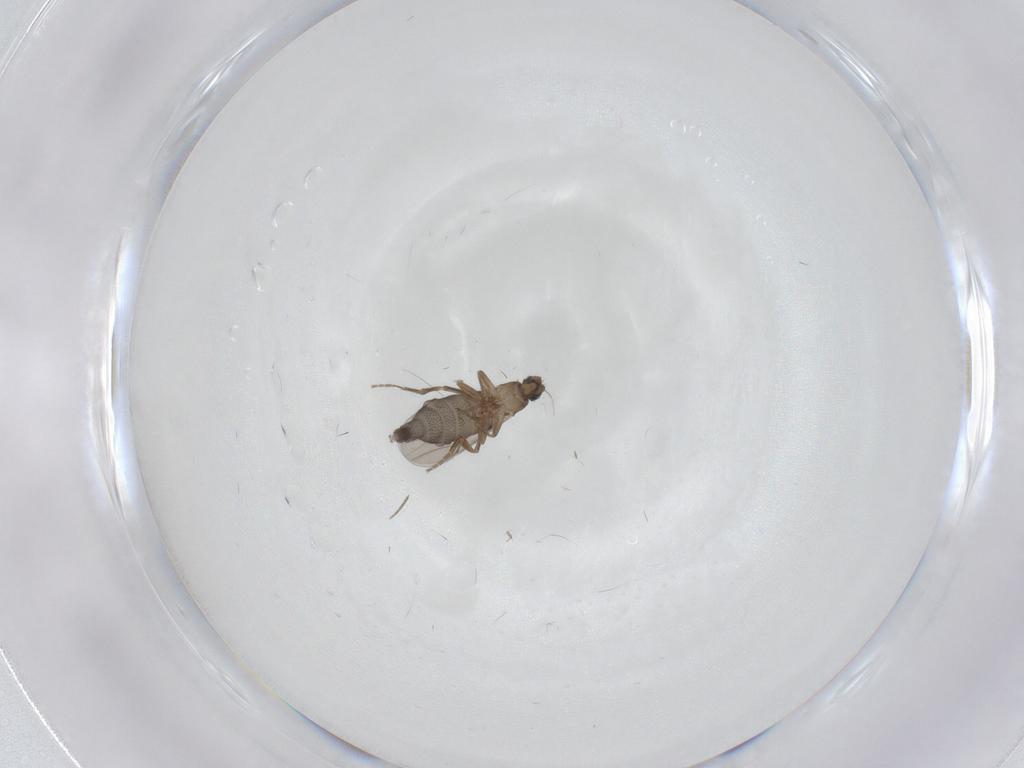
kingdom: Animalia
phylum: Arthropoda
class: Insecta
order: Diptera
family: Phoridae
